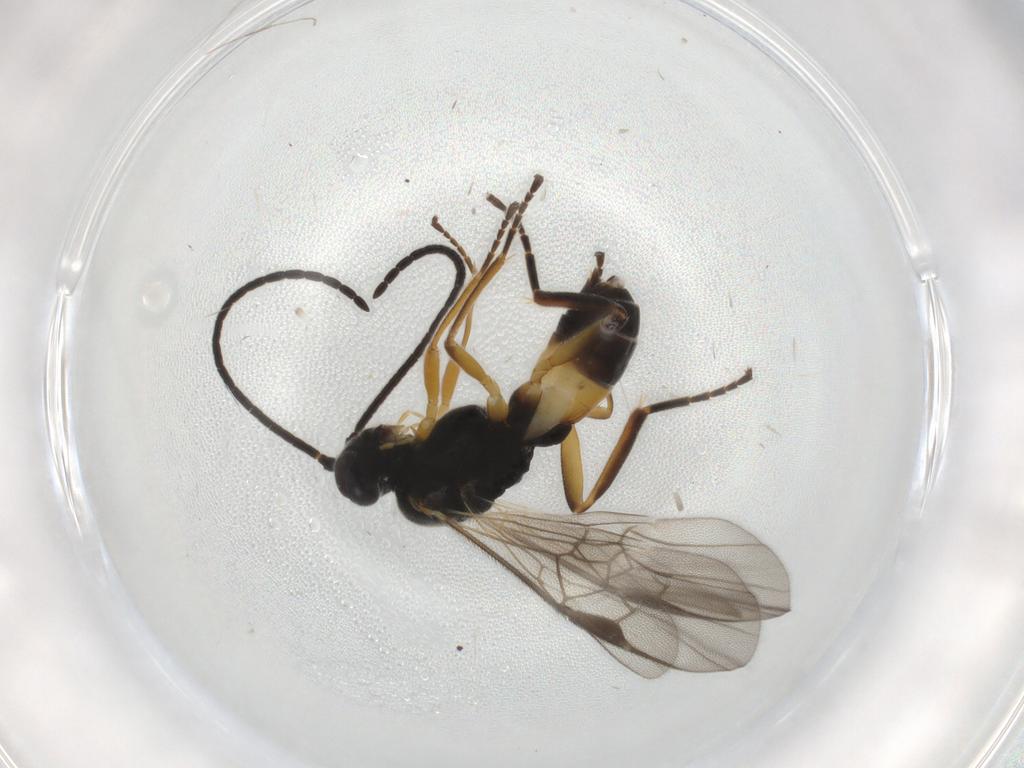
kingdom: Animalia
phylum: Arthropoda
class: Insecta
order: Hymenoptera
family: Braconidae
